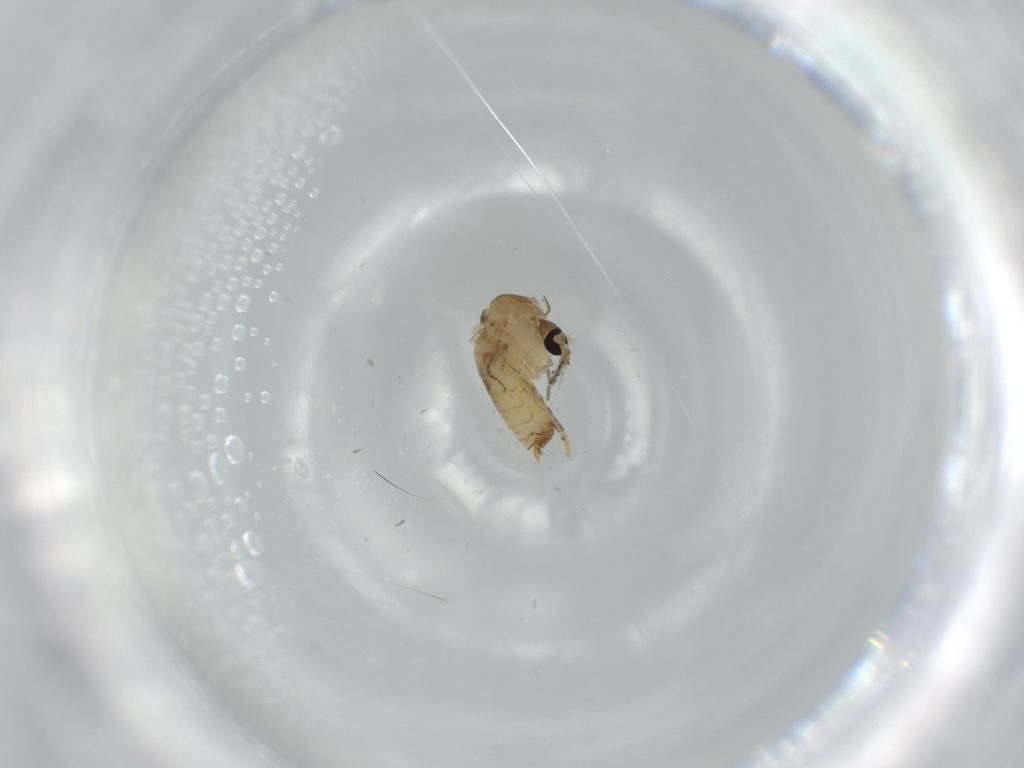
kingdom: Animalia
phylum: Arthropoda
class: Insecta
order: Diptera
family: Psychodidae
